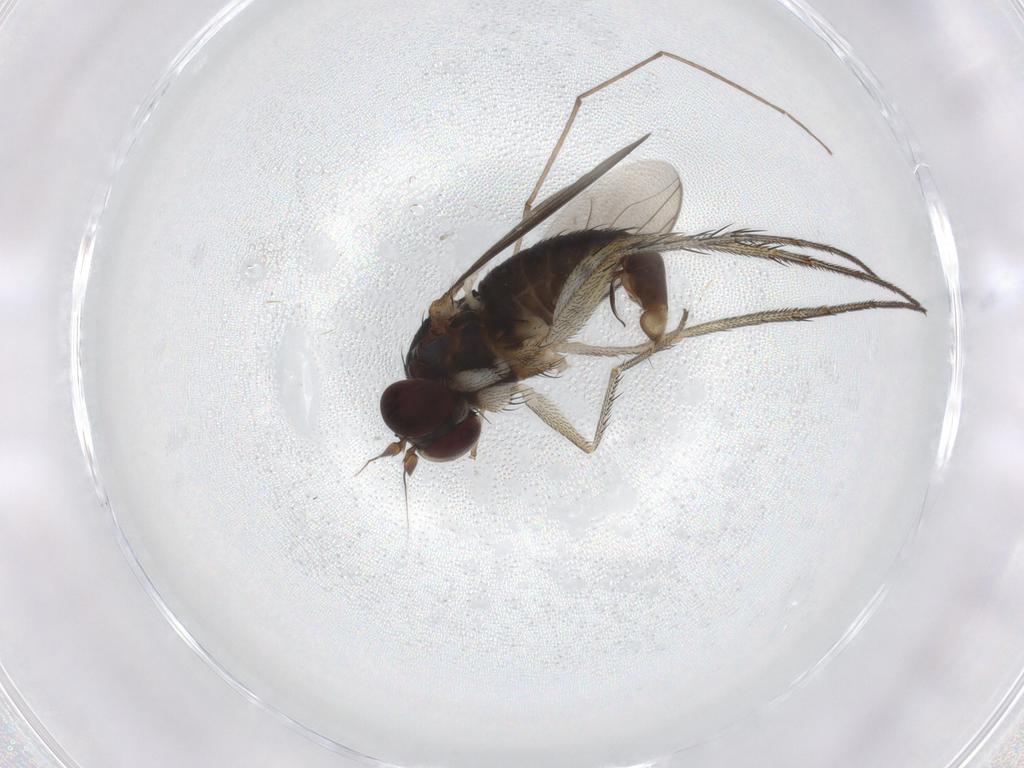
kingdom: Animalia
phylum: Arthropoda
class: Insecta
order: Diptera
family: Dolichopodidae
